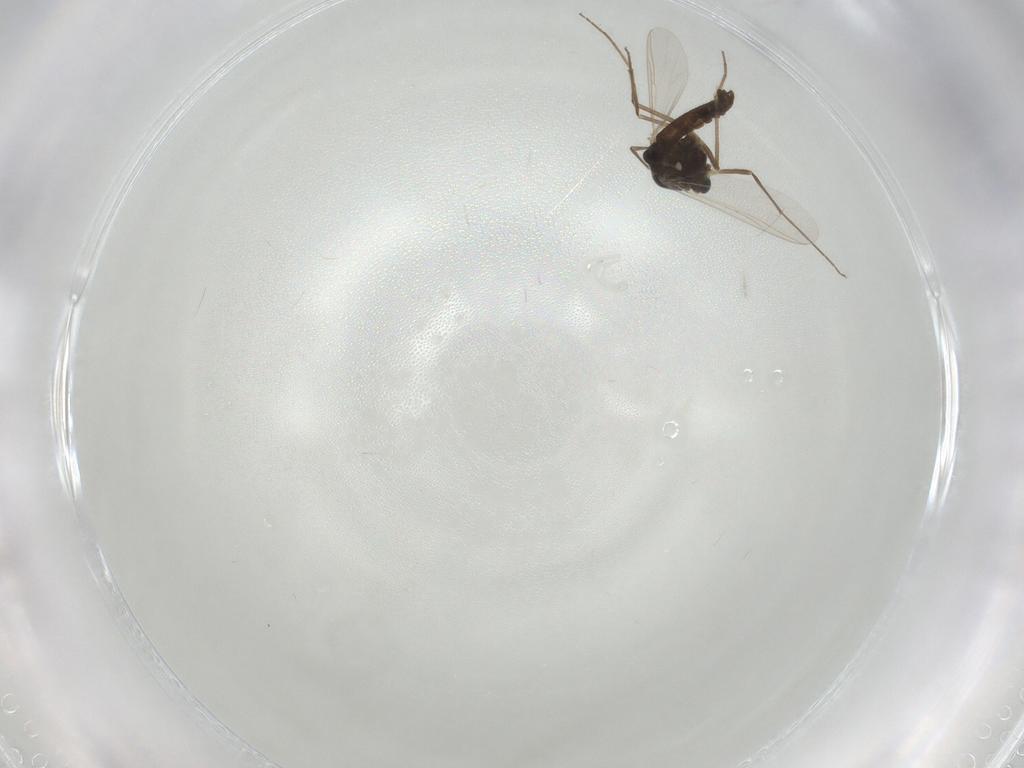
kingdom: Animalia
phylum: Arthropoda
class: Insecta
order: Diptera
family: Chironomidae
